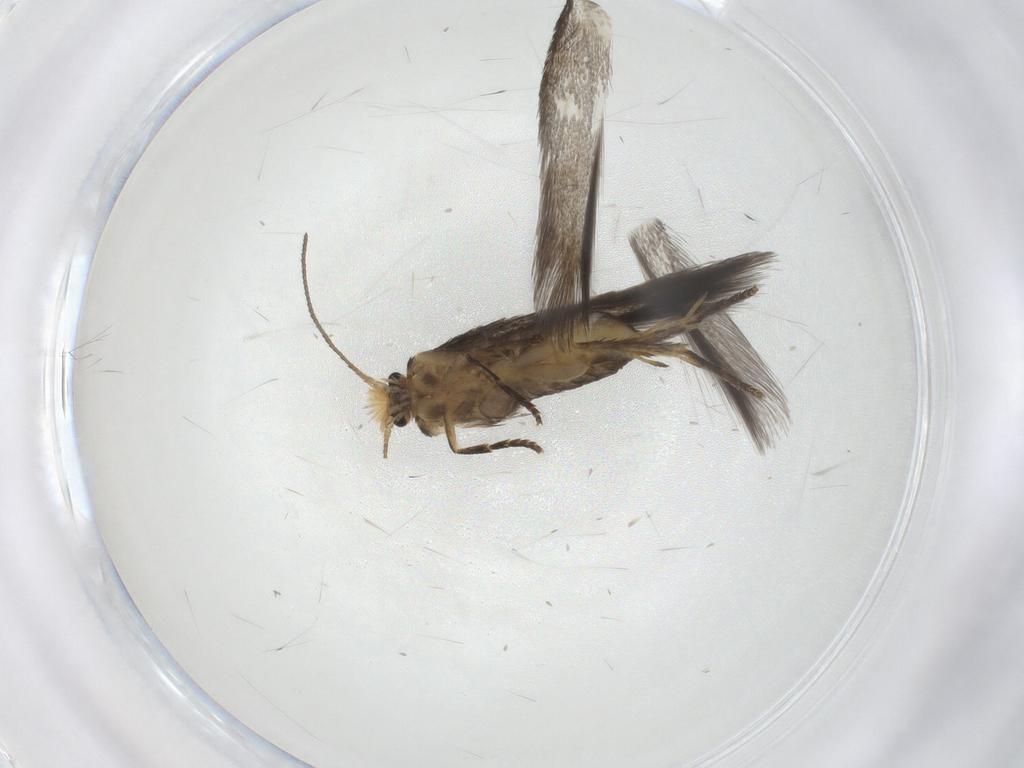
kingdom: Animalia
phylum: Arthropoda
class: Insecta
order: Lepidoptera
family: Nepticulidae
